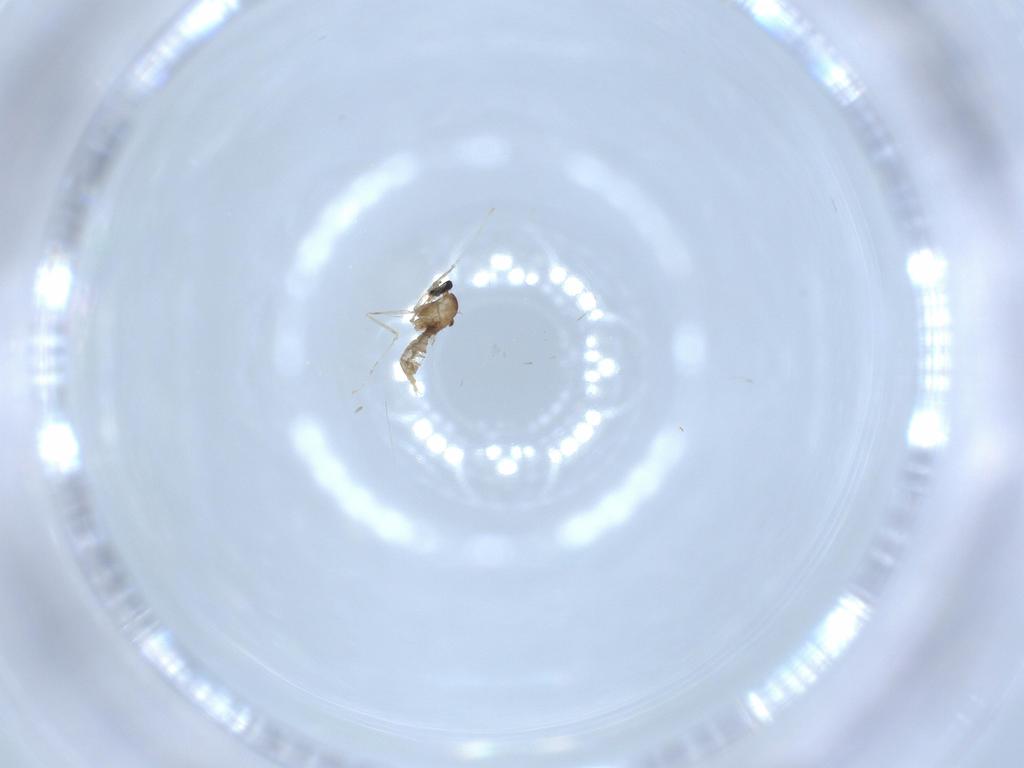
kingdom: Animalia
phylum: Arthropoda
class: Insecta
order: Diptera
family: Cecidomyiidae
